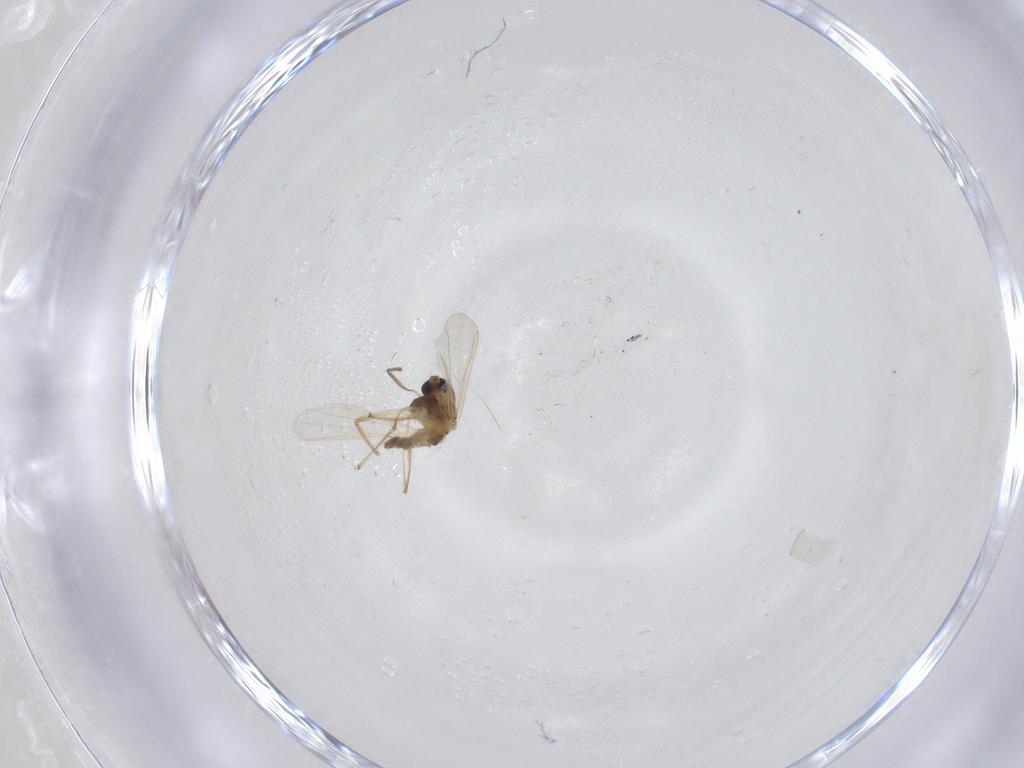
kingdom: Animalia
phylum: Arthropoda
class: Insecta
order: Diptera
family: Chironomidae
